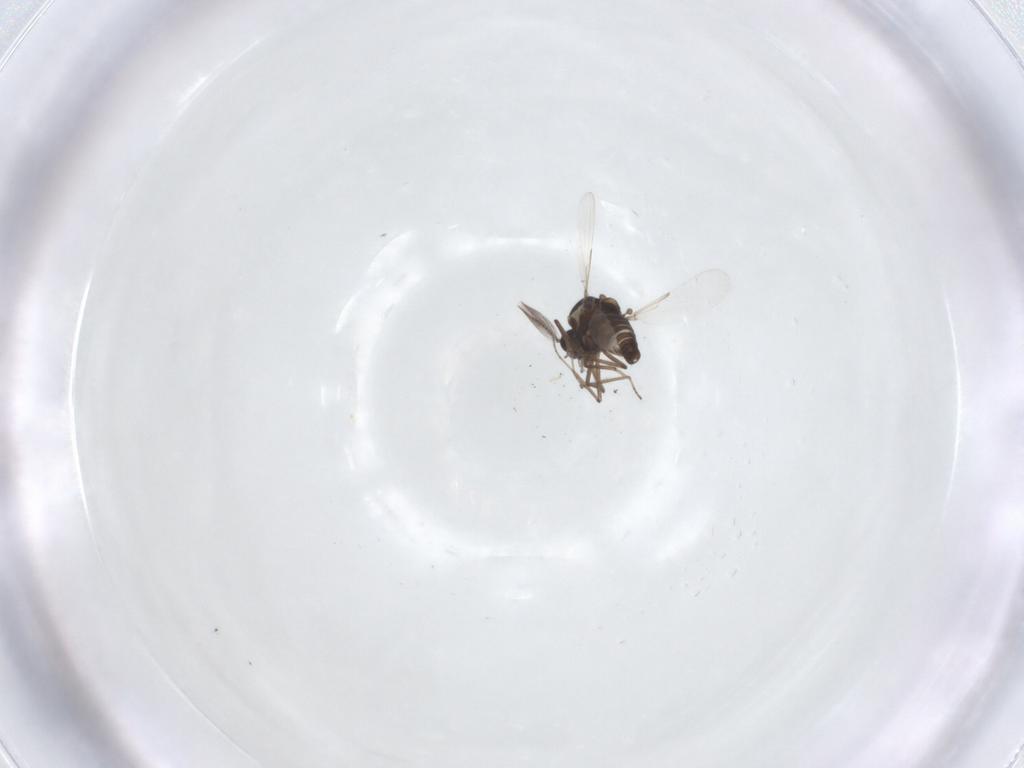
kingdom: Animalia
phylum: Arthropoda
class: Insecta
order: Diptera
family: Ceratopogonidae
